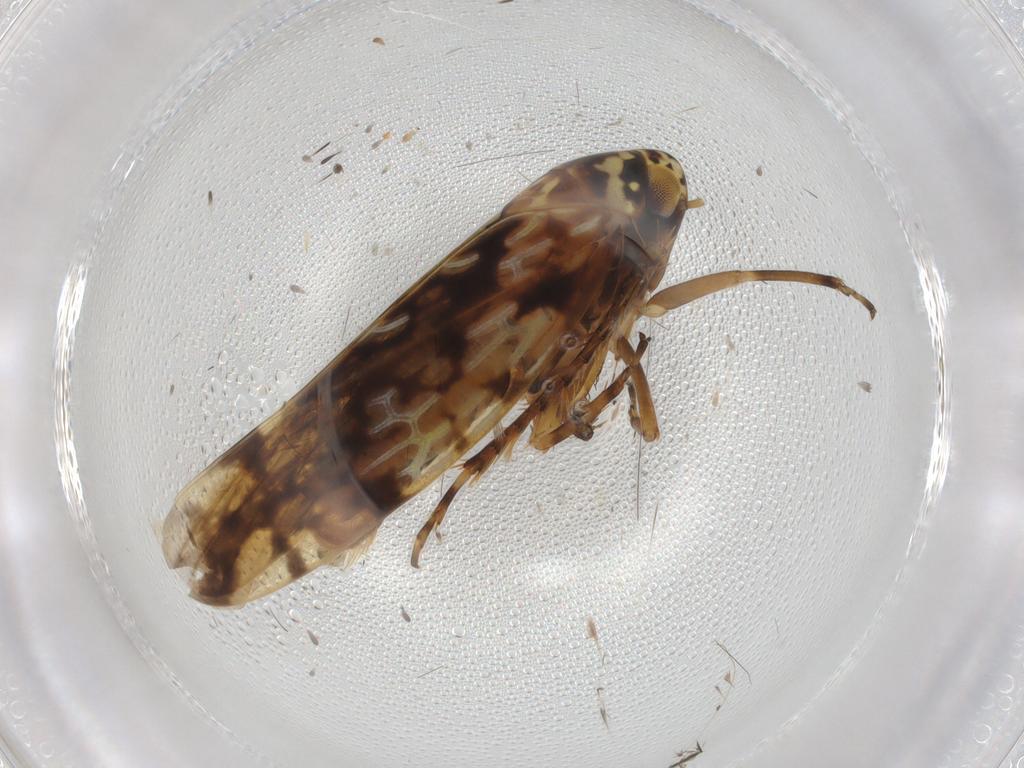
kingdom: Animalia
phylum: Arthropoda
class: Insecta
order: Hemiptera
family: Cicadellidae
